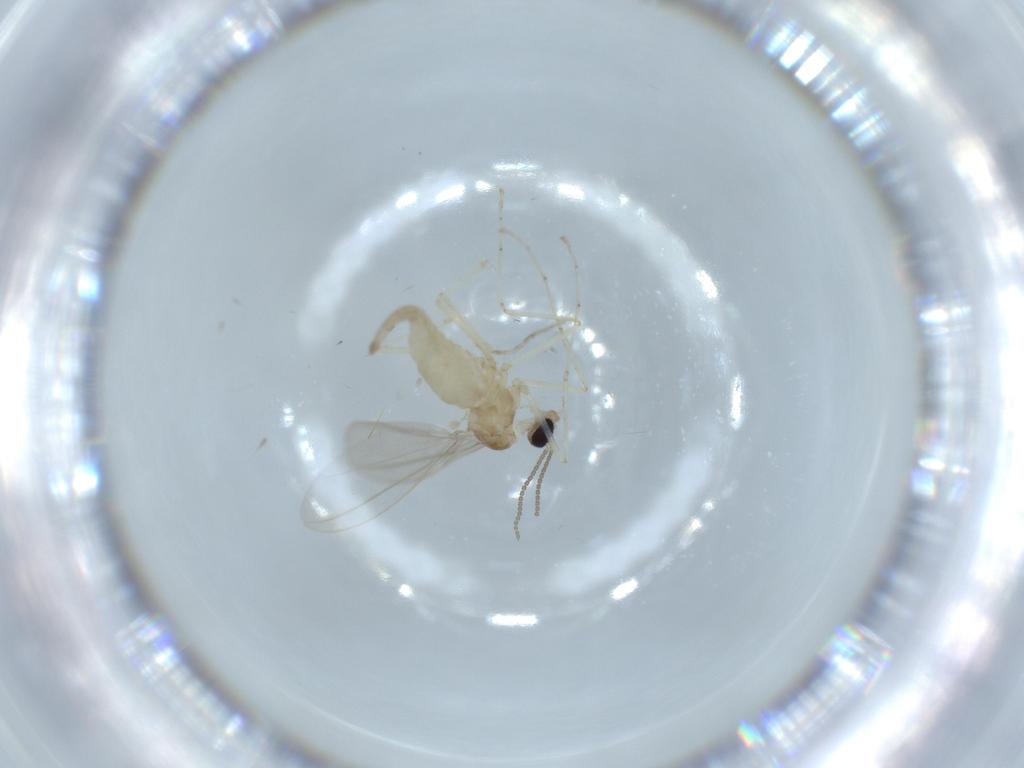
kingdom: Animalia
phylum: Arthropoda
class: Insecta
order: Diptera
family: Cecidomyiidae
